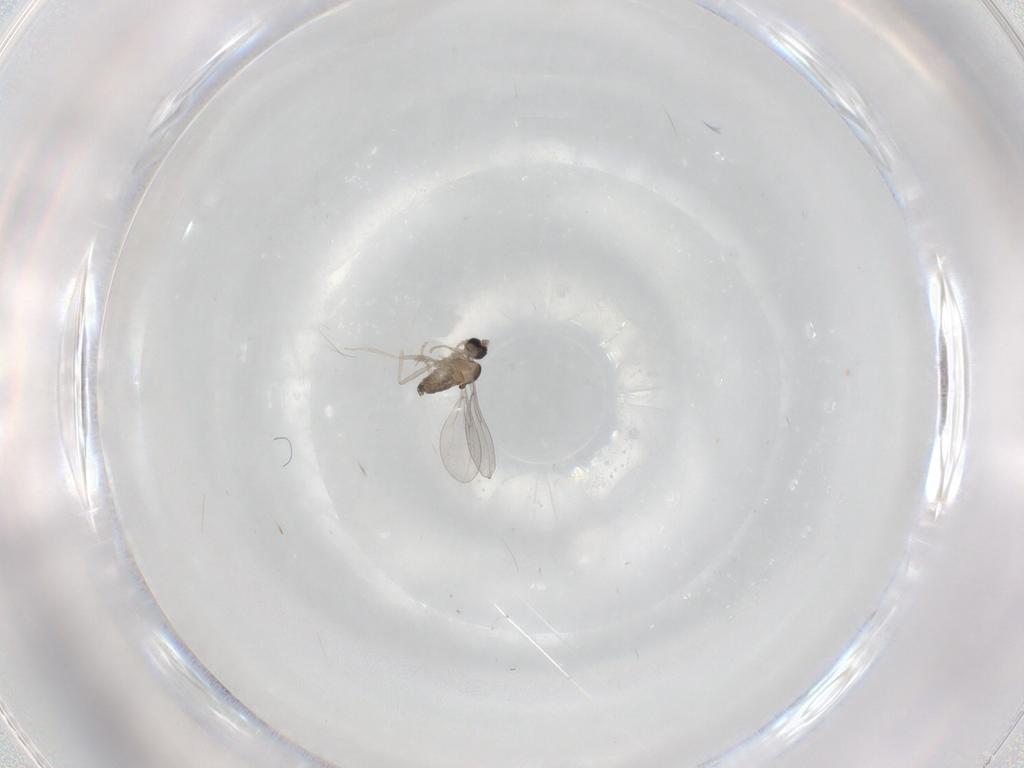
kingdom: Animalia
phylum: Arthropoda
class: Insecta
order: Diptera
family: Cecidomyiidae
